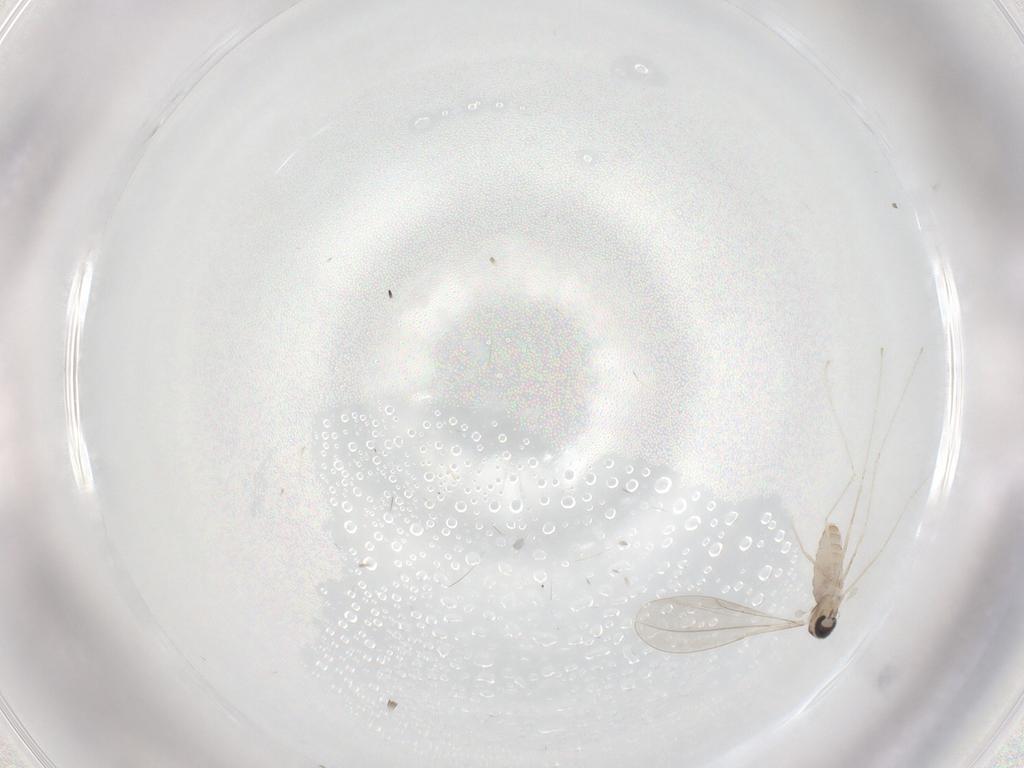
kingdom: Animalia
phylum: Arthropoda
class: Insecta
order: Diptera
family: Cecidomyiidae
